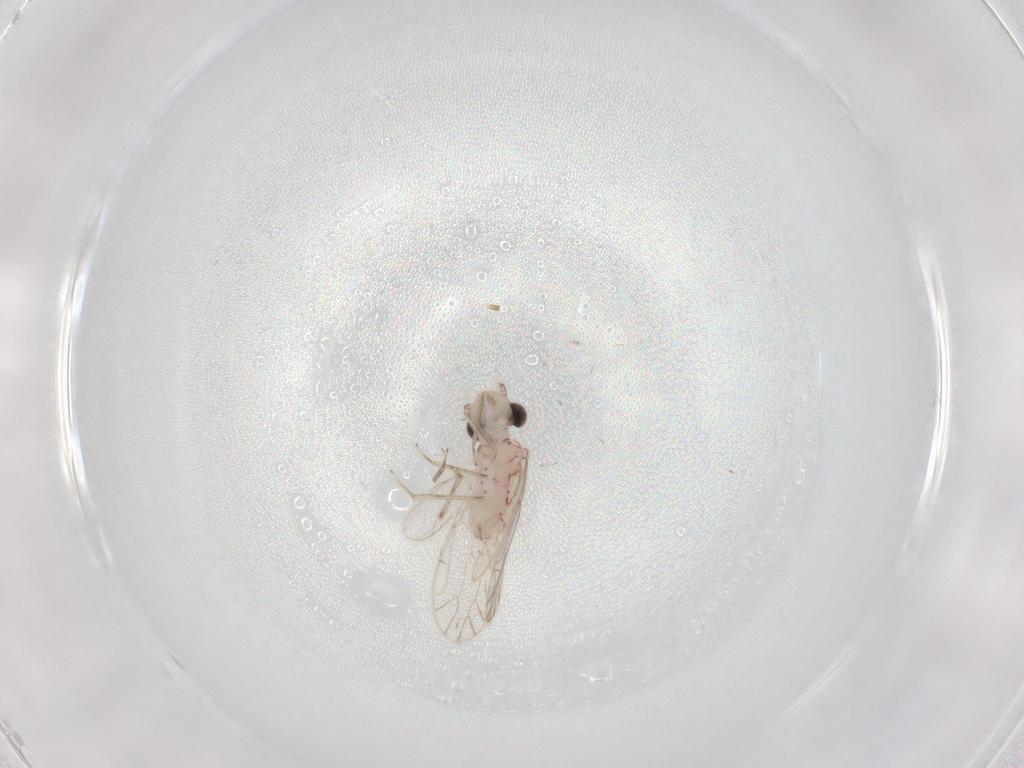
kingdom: Animalia
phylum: Arthropoda
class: Insecta
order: Psocodea
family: Caeciliusidae
